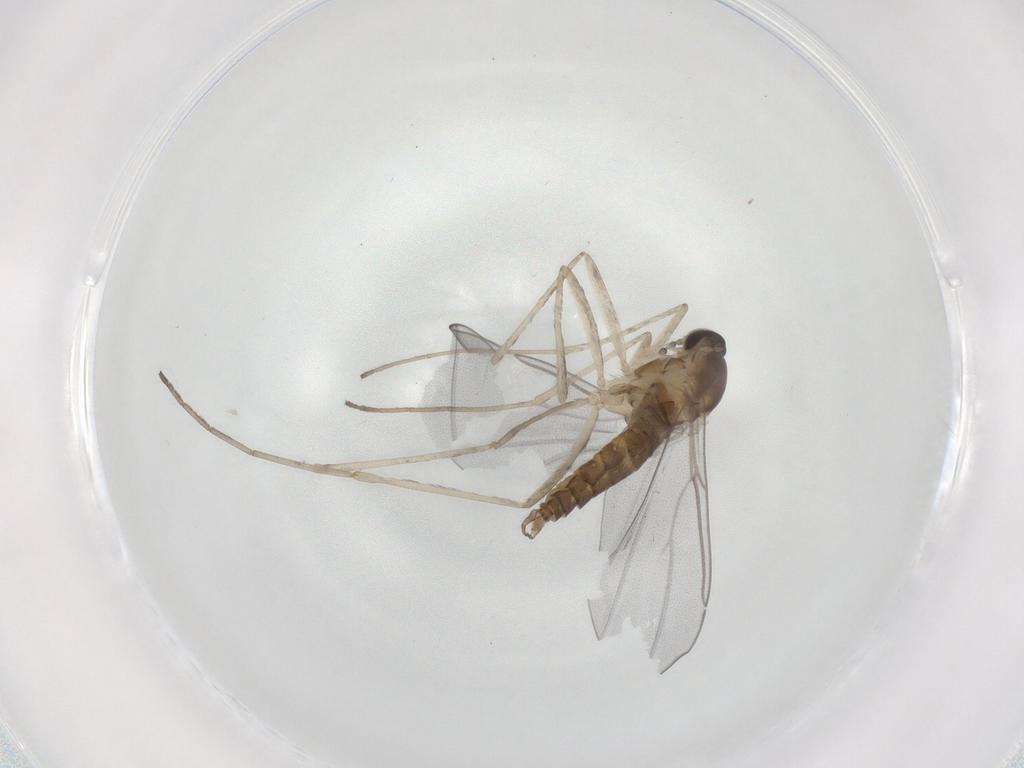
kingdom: Animalia
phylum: Arthropoda
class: Insecta
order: Diptera
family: Cecidomyiidae
